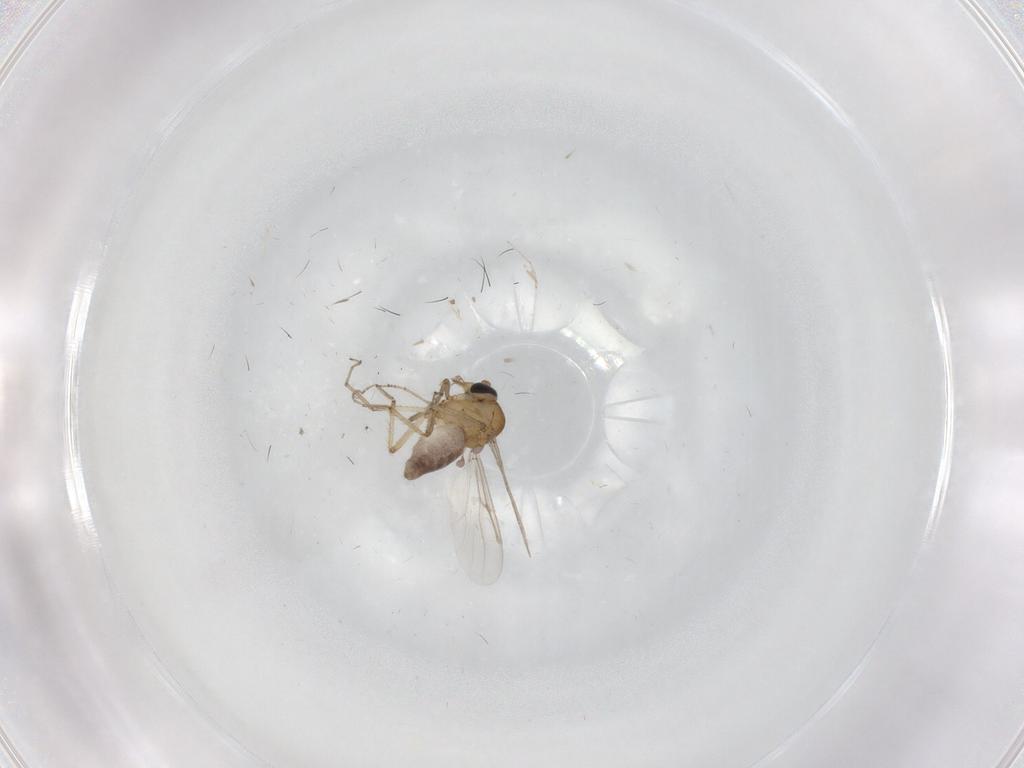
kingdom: Animalia
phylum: Arthropoda
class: Insecta
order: Diptera
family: Cecidomyiidae
